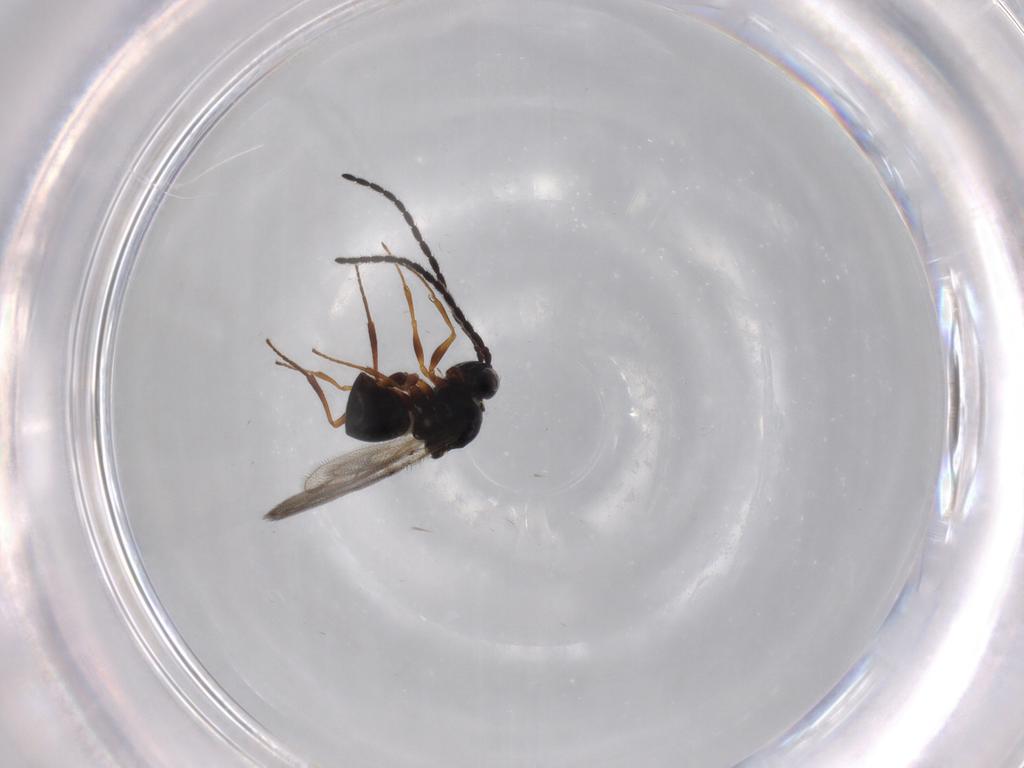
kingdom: Animalia
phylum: Arthropoda
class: Insecta
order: Hymenoptera
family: Figitidae
